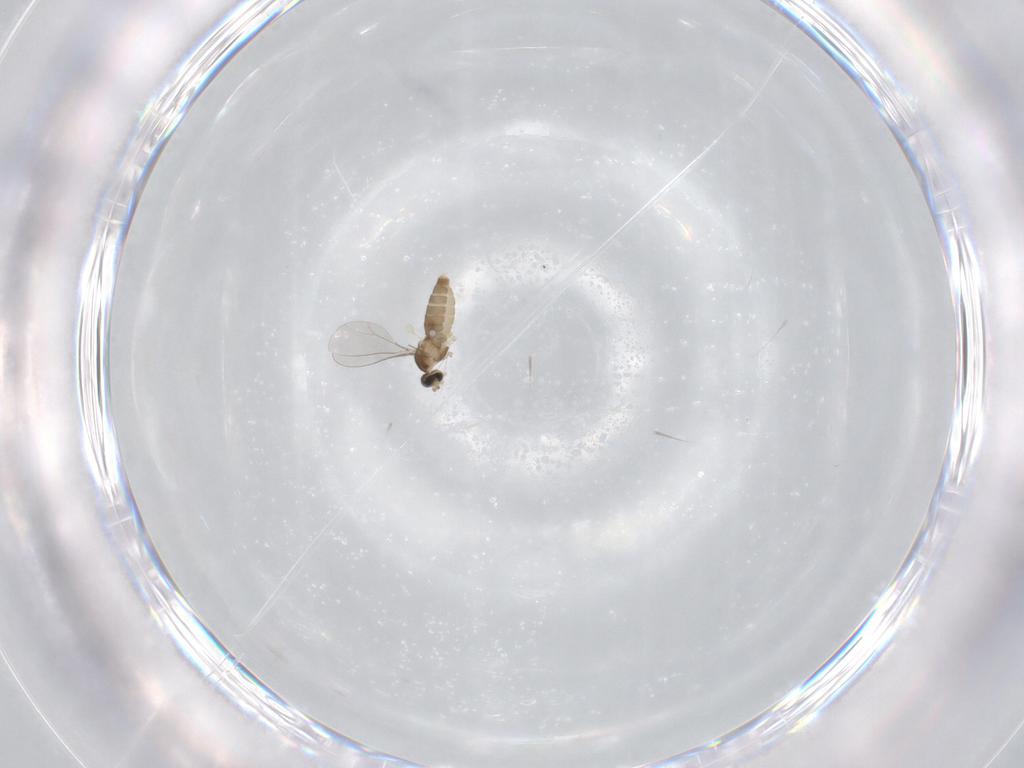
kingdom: Animalia
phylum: Arthropoda
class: Insecta
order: Diptera
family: Cecidomyiidae
